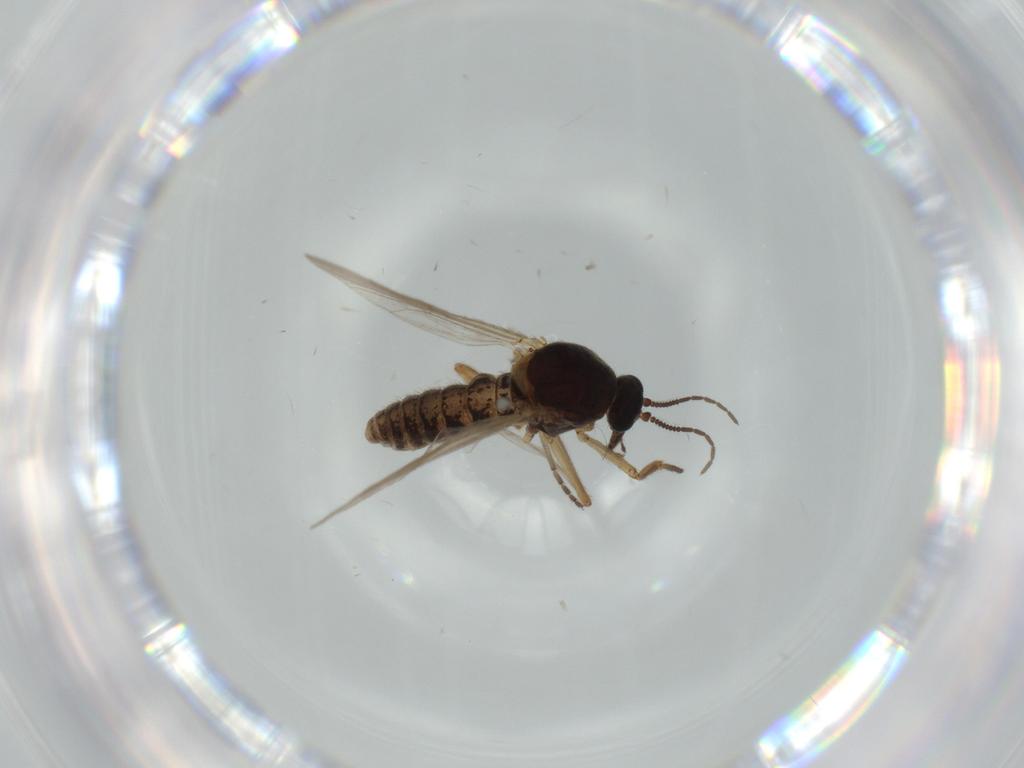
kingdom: Animalia
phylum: Arthropoda
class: Insecta
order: Diptera
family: Ceratopogonidae
